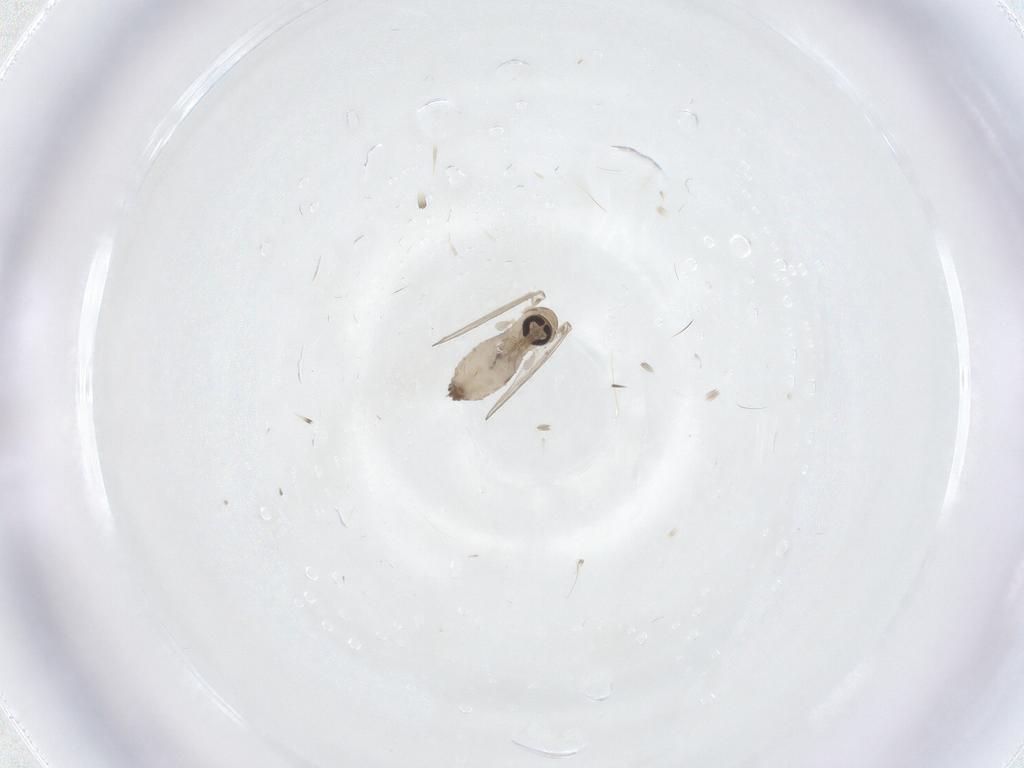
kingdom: Animalia
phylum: Arthropoda
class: Insecta
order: Diptera
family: Psychodidae
